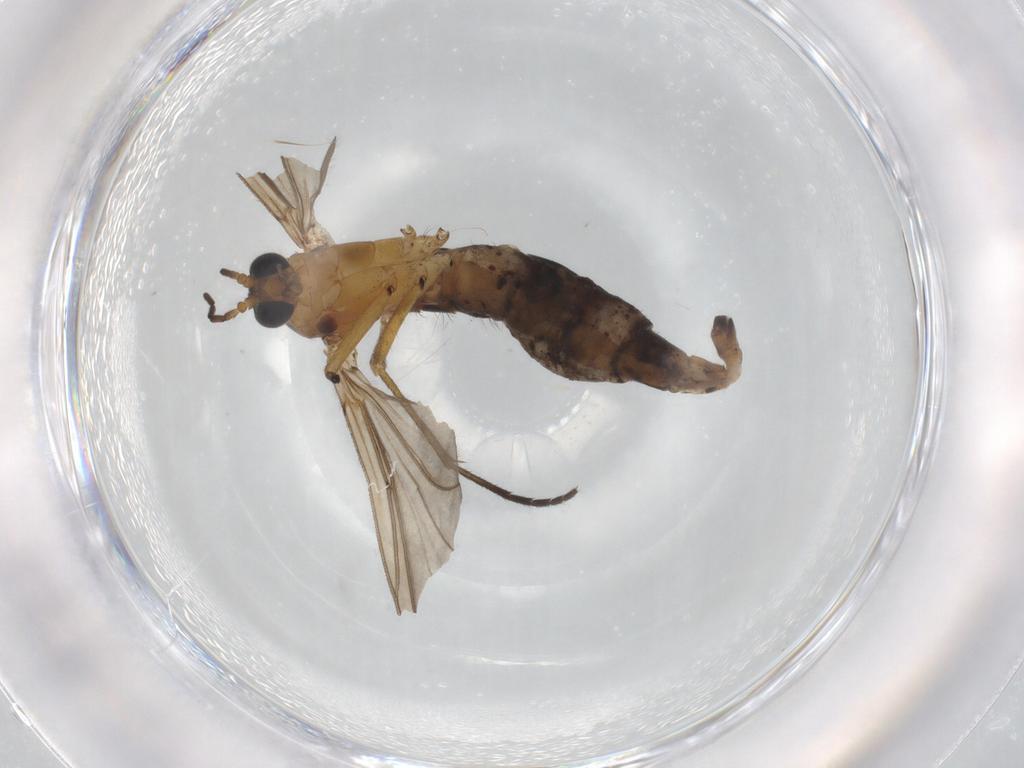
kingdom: Animalia
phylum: Arthropoda
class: Insecta
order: Diptera
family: Sciaridae
